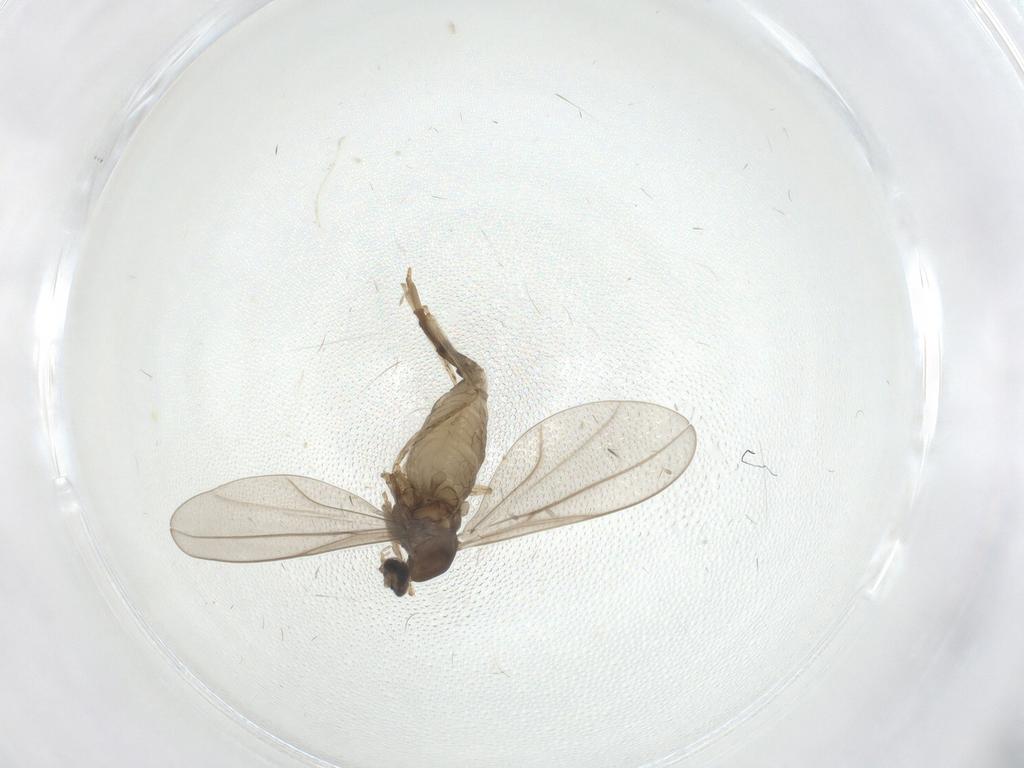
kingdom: Animalia
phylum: Arthropoda
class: Insecta
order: Diptera
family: Cecidomyiidae
